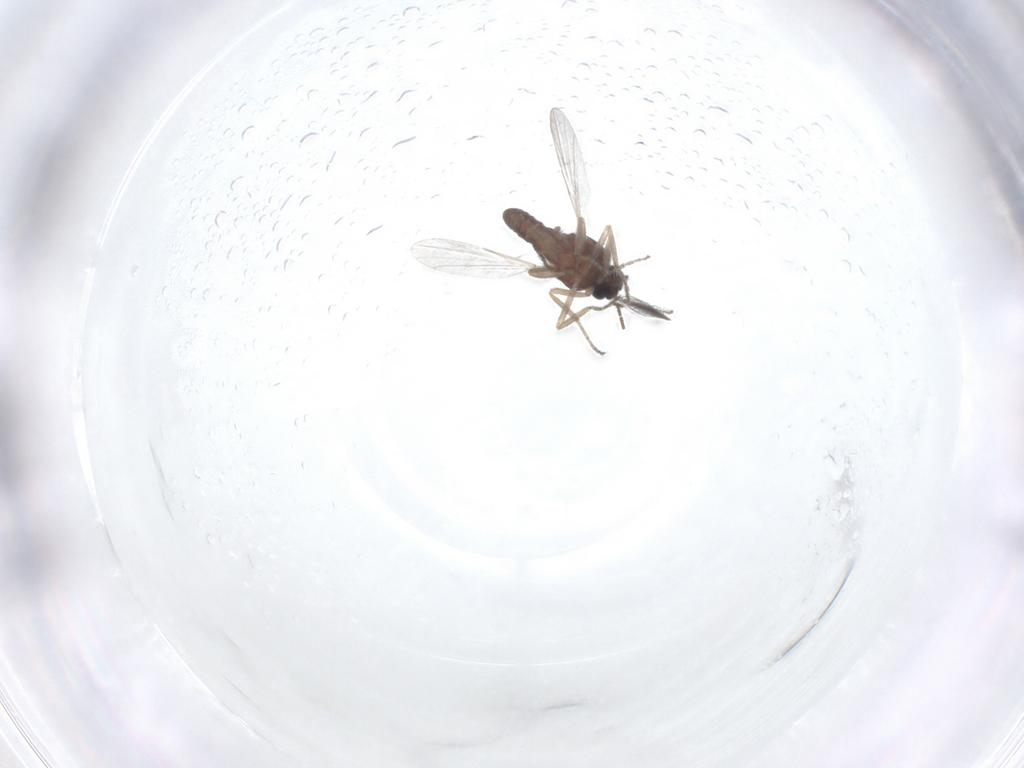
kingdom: Animalia
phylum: Arthropoda
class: Insecta
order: Diptera
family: Ceratopogonidae
